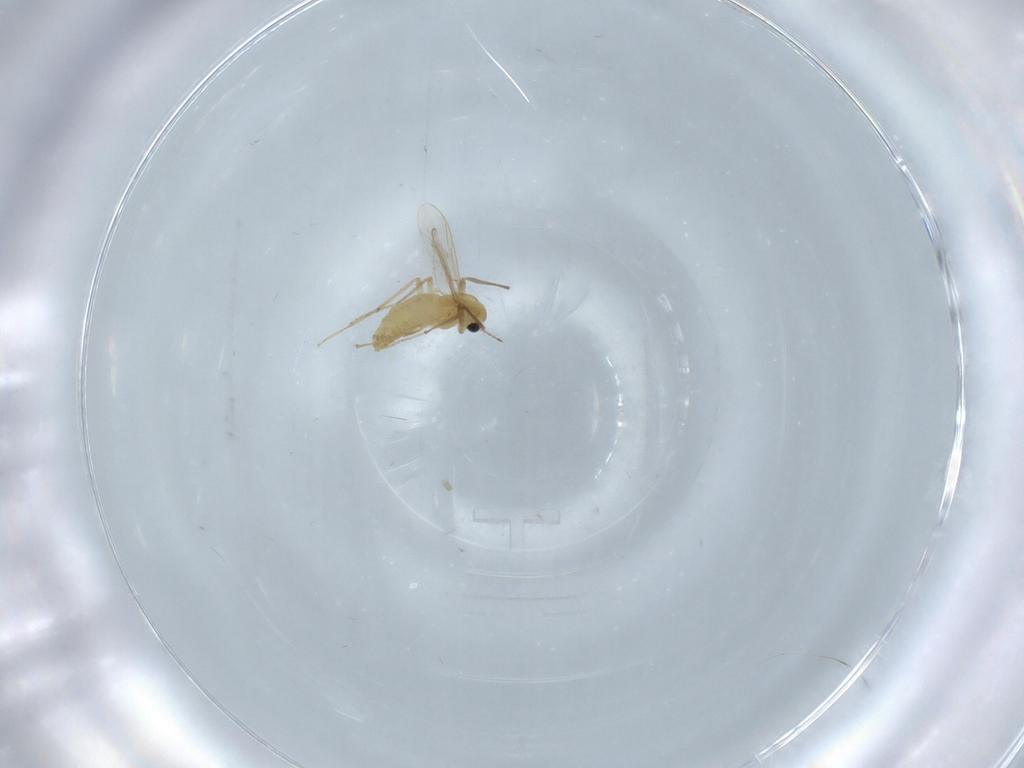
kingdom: Animalia
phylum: Arthropoda
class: Insecta
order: Diptera
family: Chironomidae
